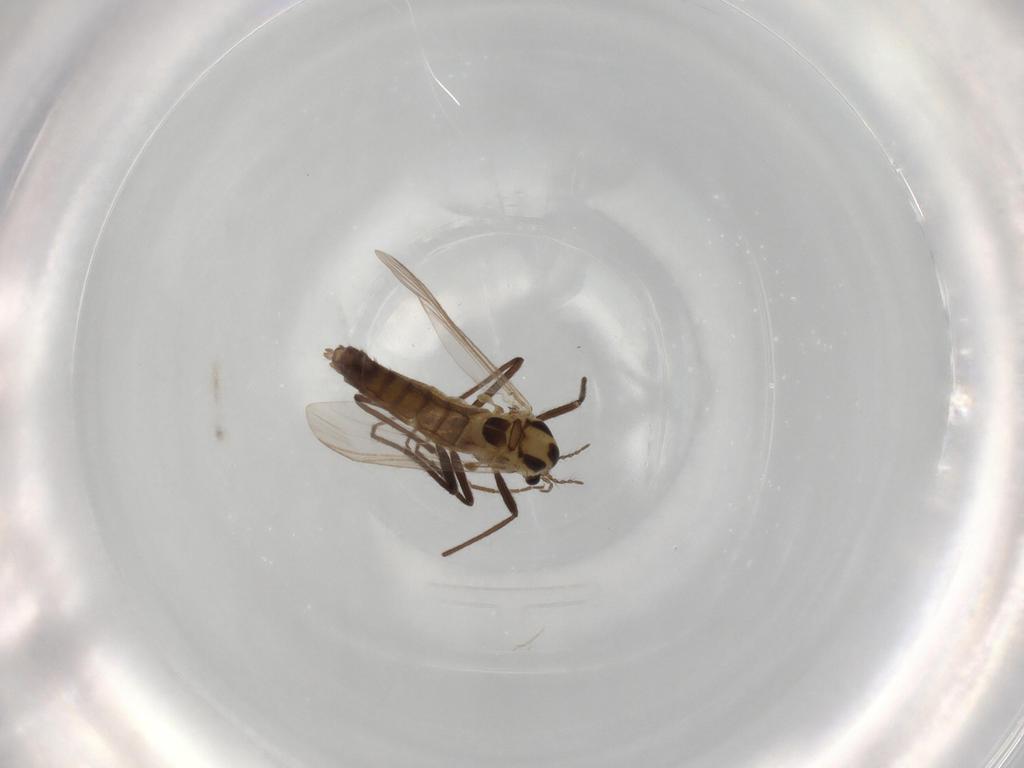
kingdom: Animalia
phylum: Arthropoda
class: Insecta
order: Diptera
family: Chironomidae
